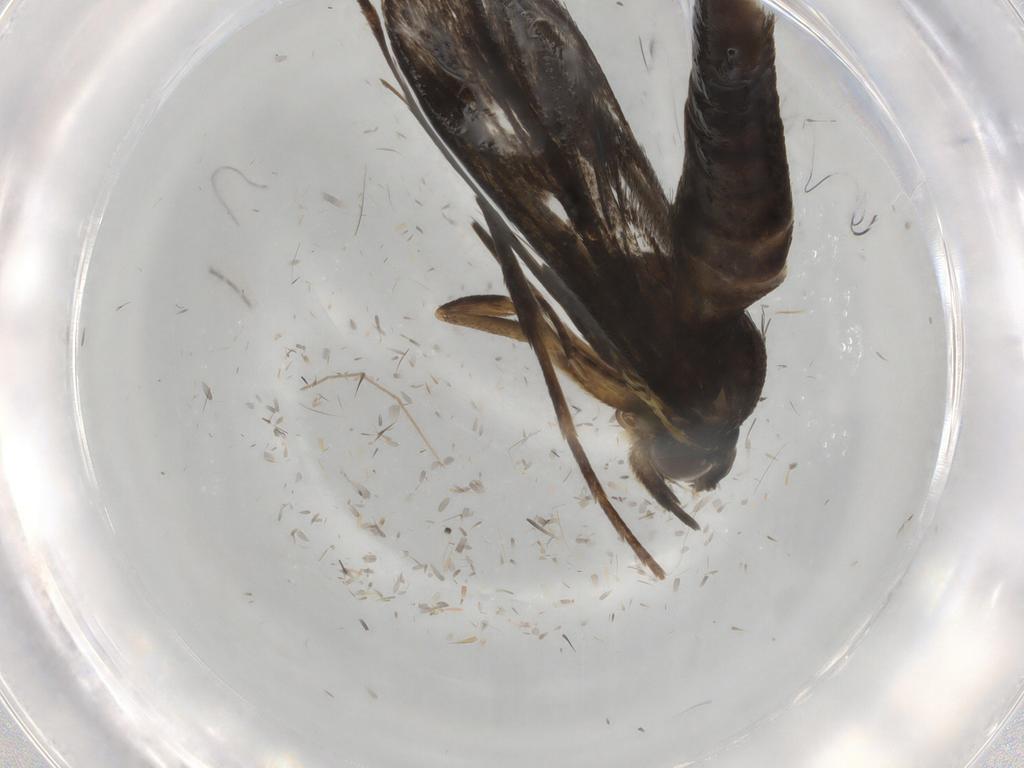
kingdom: Animalia
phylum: Arthropoda
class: Insecta
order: Lepidoptera
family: Sesiidae
